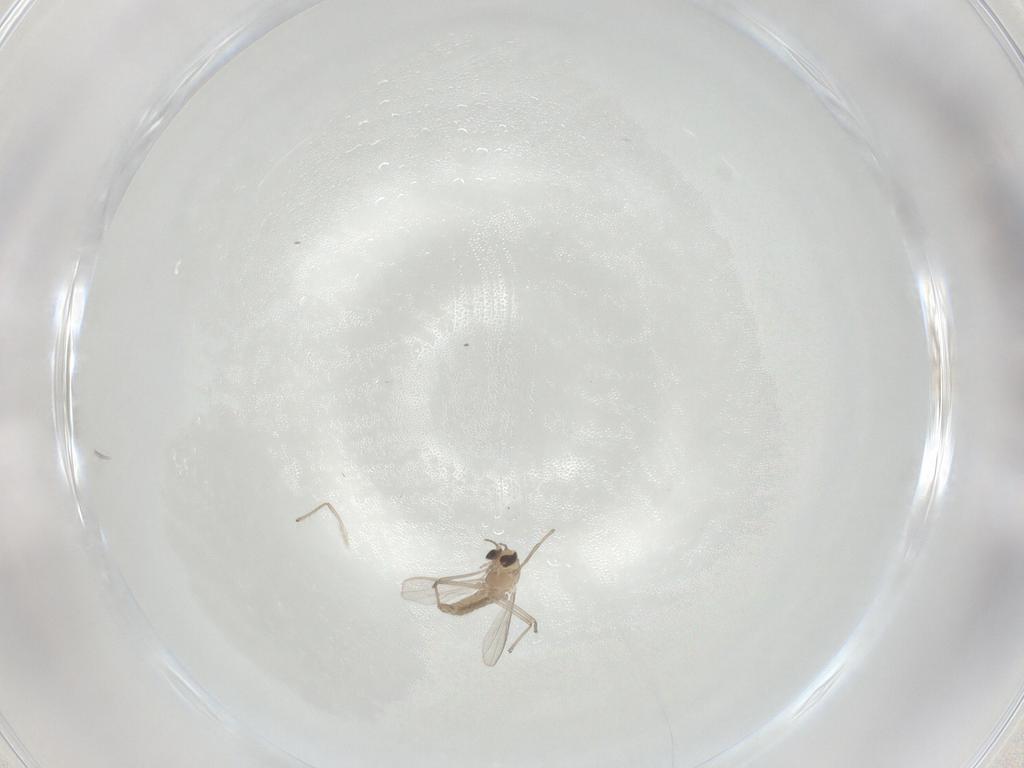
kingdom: Animalia
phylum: Arthropoda
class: Insecta
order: Diptera
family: Chironomidae
